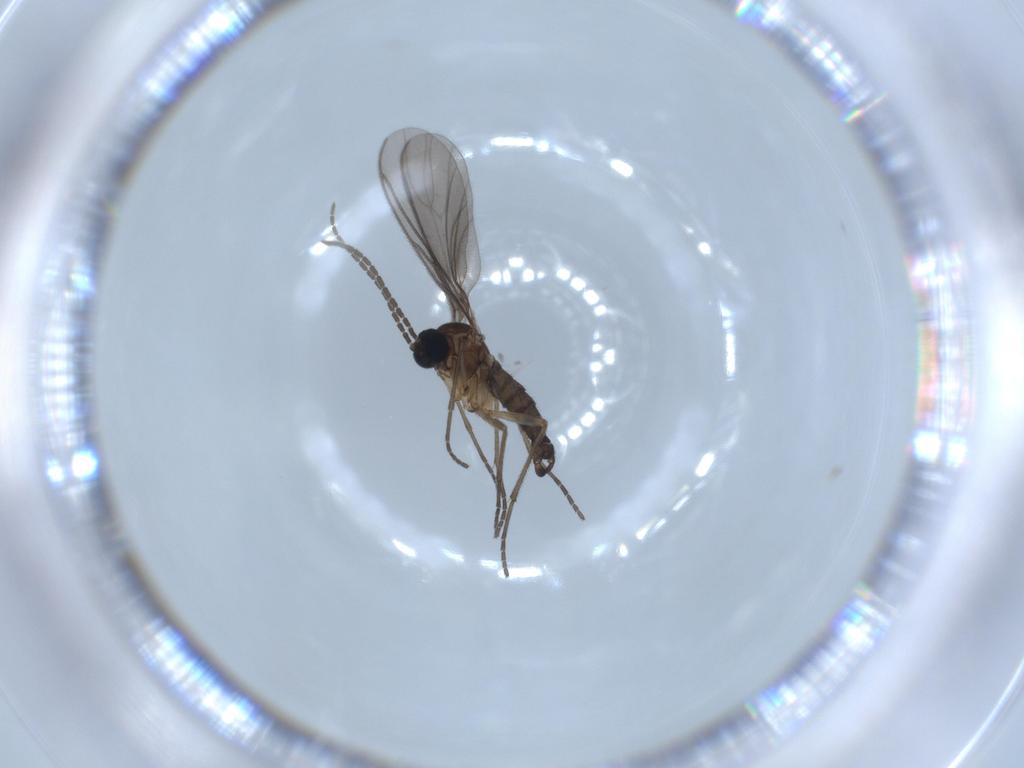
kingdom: Animalia
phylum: Arthropoda
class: Insecta
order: Diptera
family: Sciaridae
